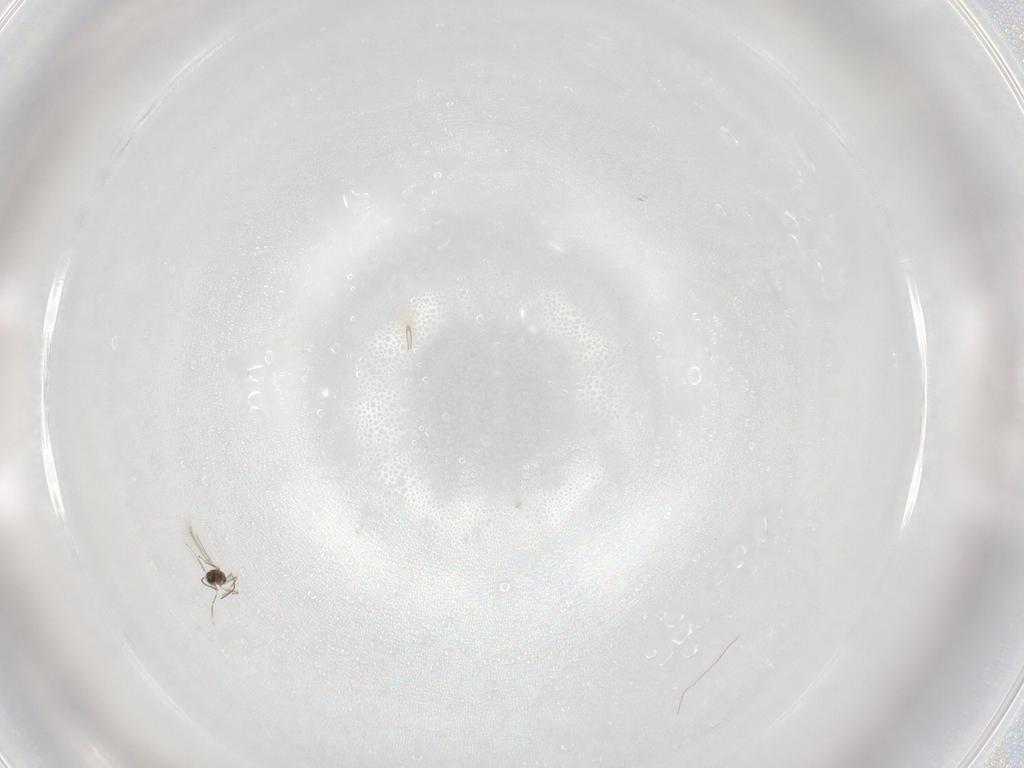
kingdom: Animalia
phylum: Arthropoda
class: Insecta
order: Hymenoptera
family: Mymaridae
